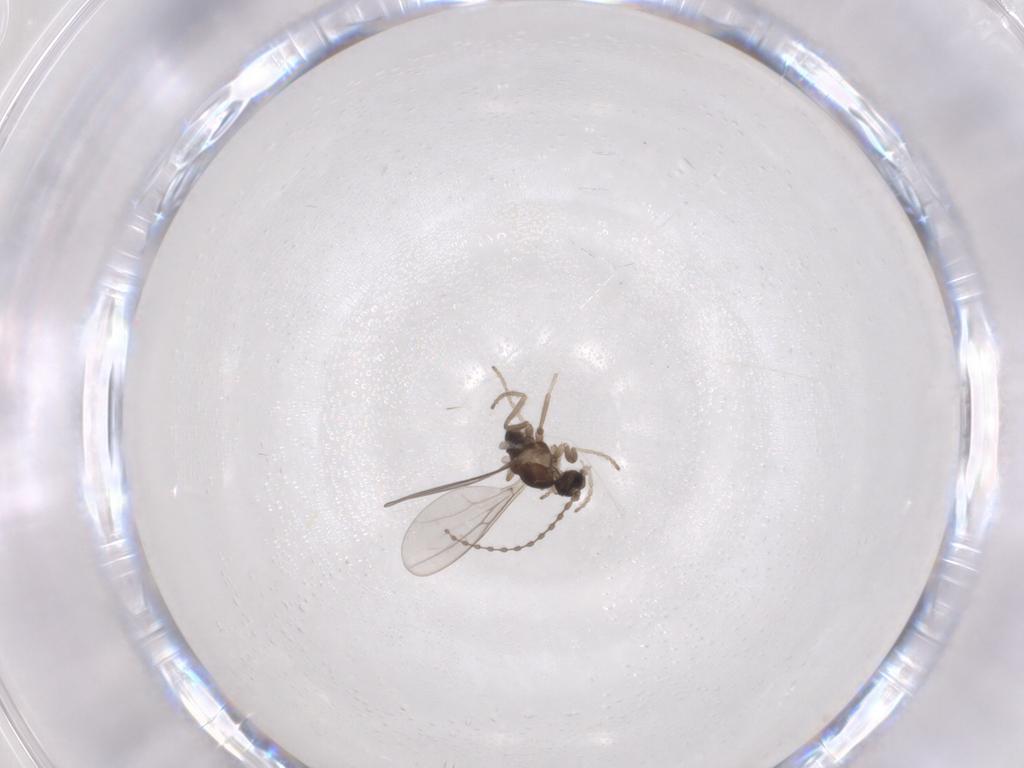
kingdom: Animalia
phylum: Arthropoda
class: Insecta
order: Diptera
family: Cecidomyiidae
